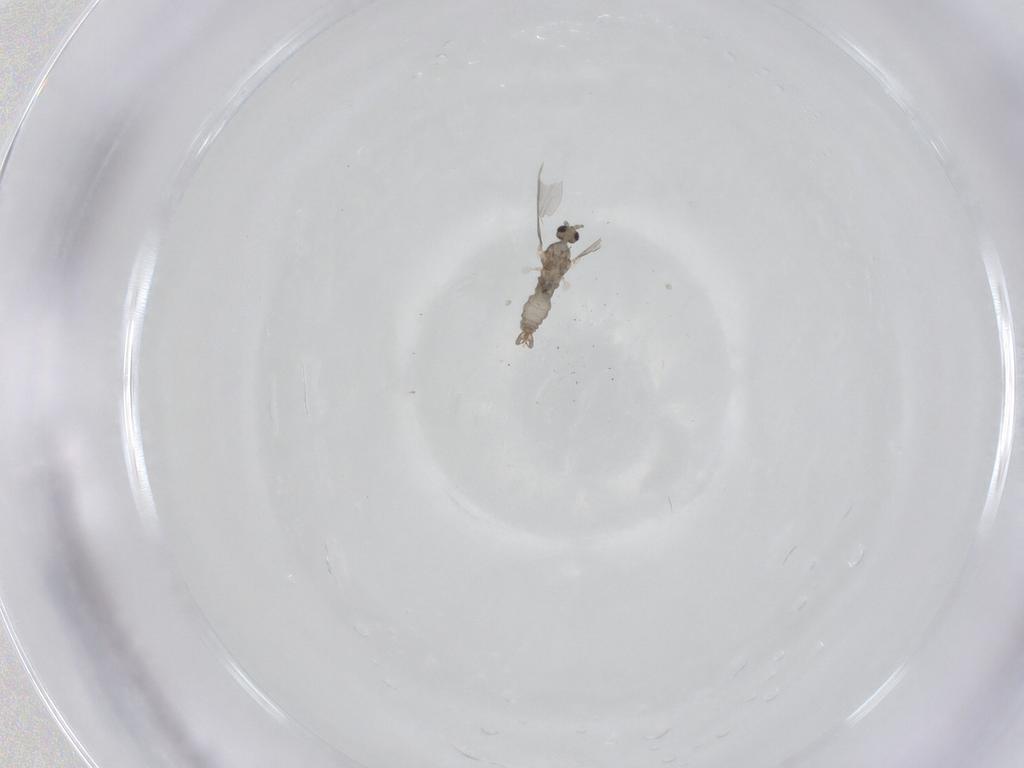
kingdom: Animalia
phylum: Arthropoda
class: Insecta
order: Diptera
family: Cecidomyiidae
